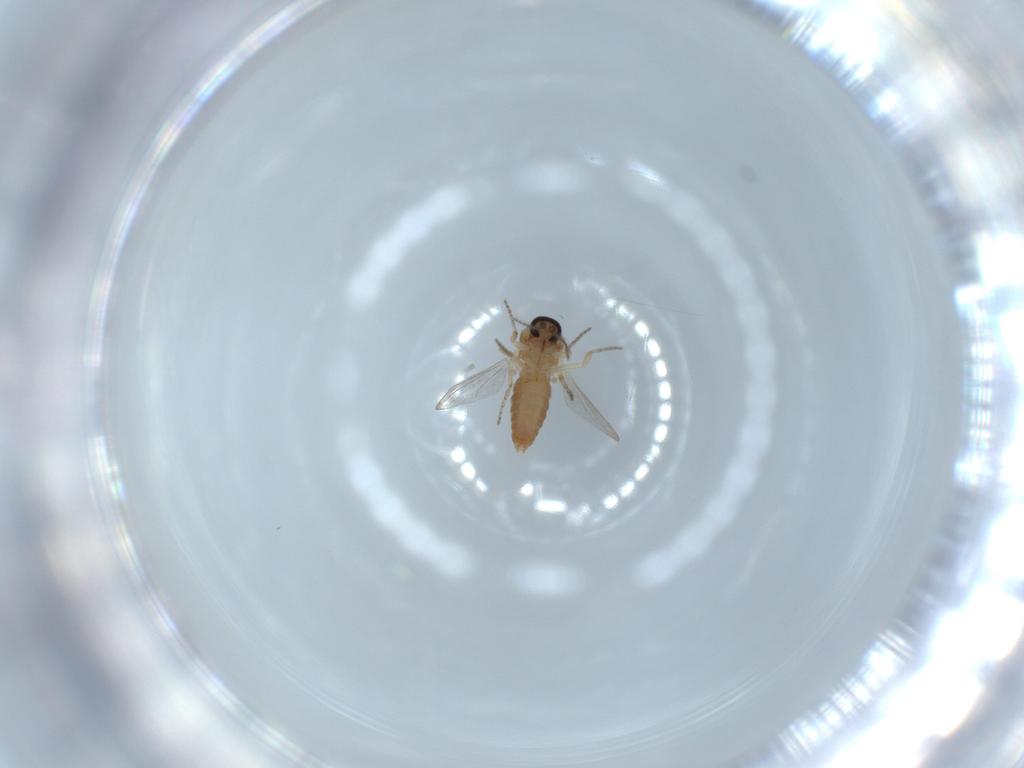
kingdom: Animalia
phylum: Arthropoda
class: Insecta
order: Diptera
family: Ceratopogonidae
